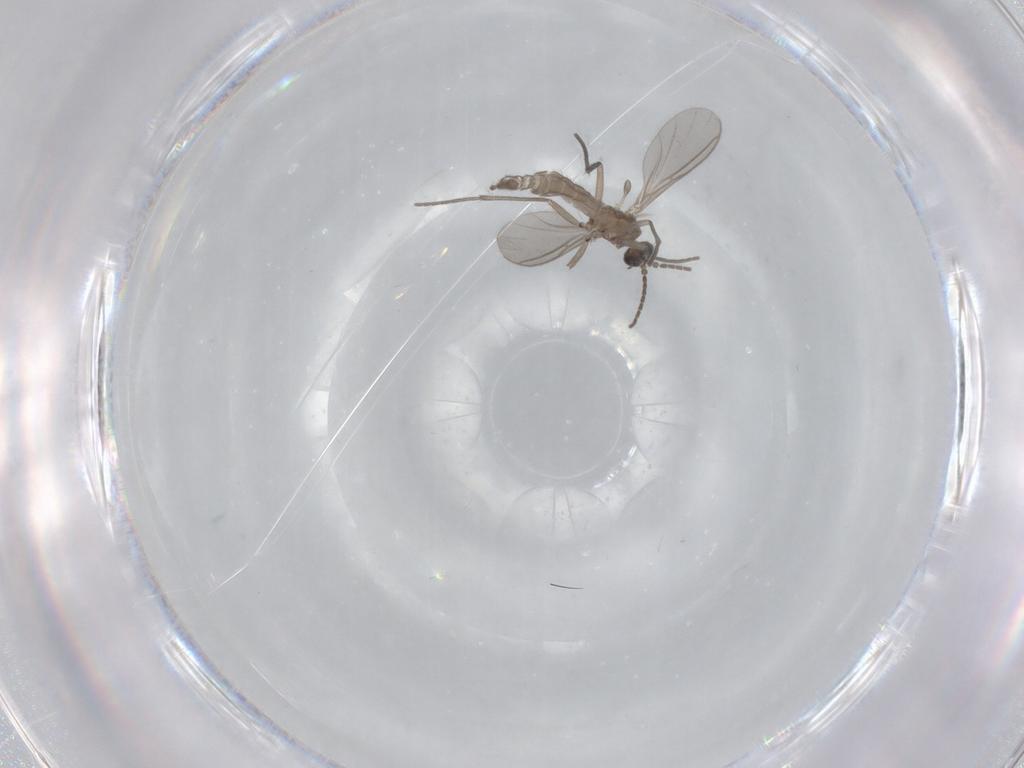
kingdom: Animalia
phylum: Arthropoda
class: Insecta
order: Diptera
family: Sciaridae
